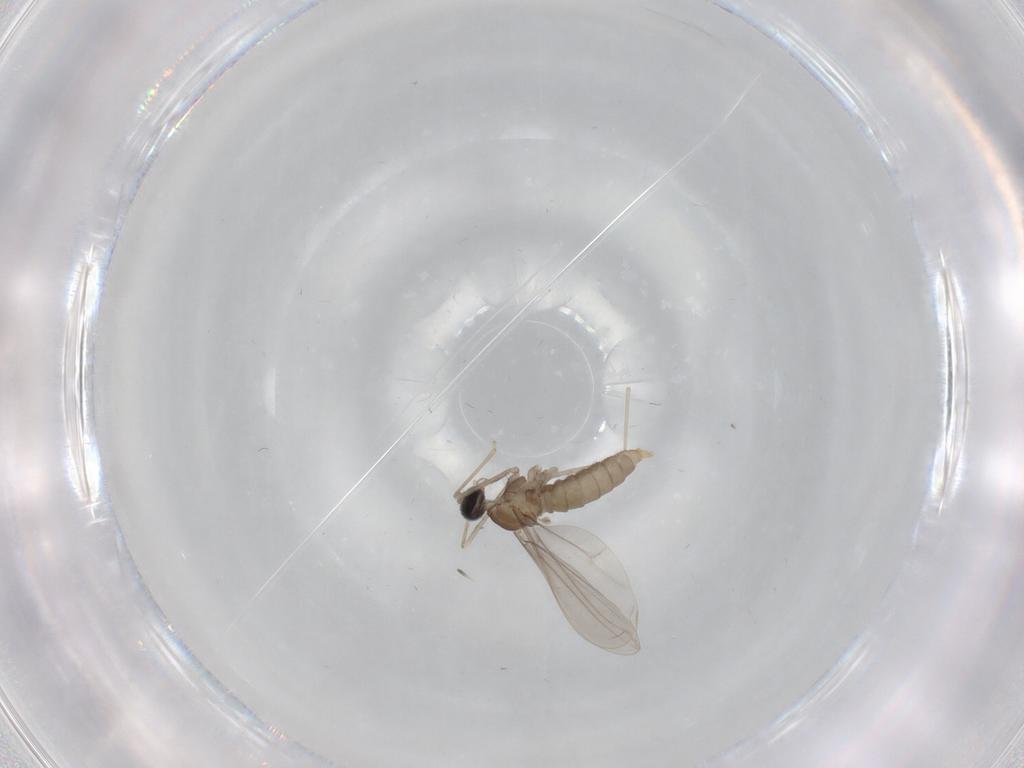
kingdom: Animalia
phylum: Arthropoda
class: Insecta
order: Diptera
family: Cecidomyiidae
